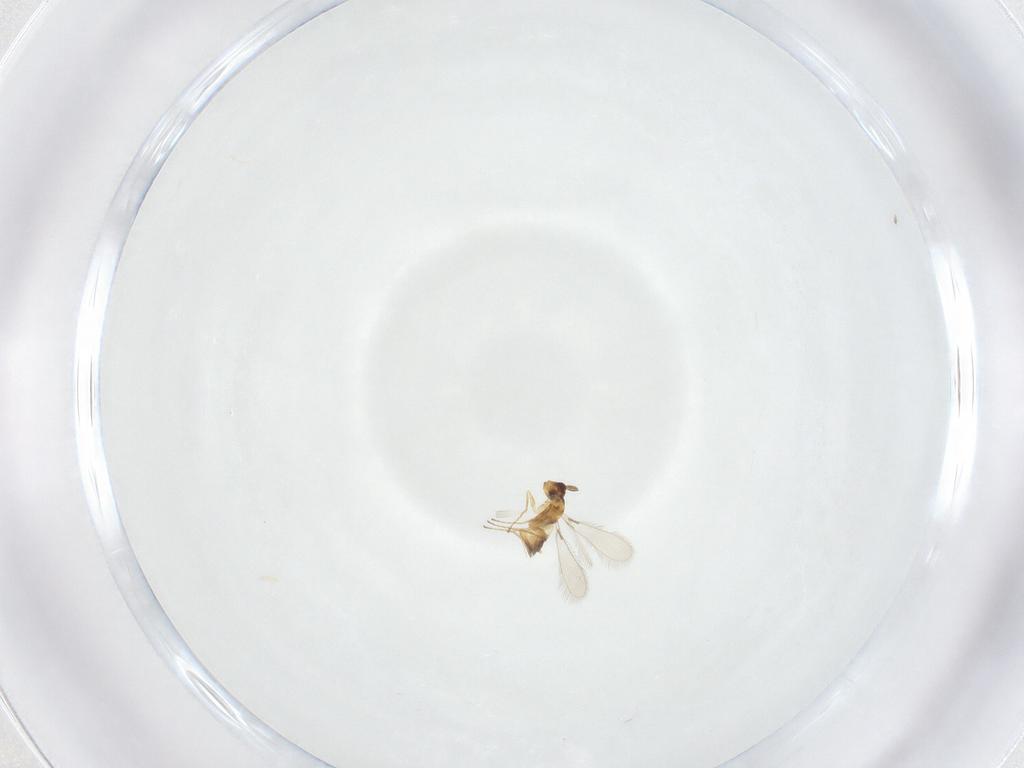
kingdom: Animalia
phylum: Arthropoda
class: Insecta
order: Hymenoptera
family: Mymaridae
